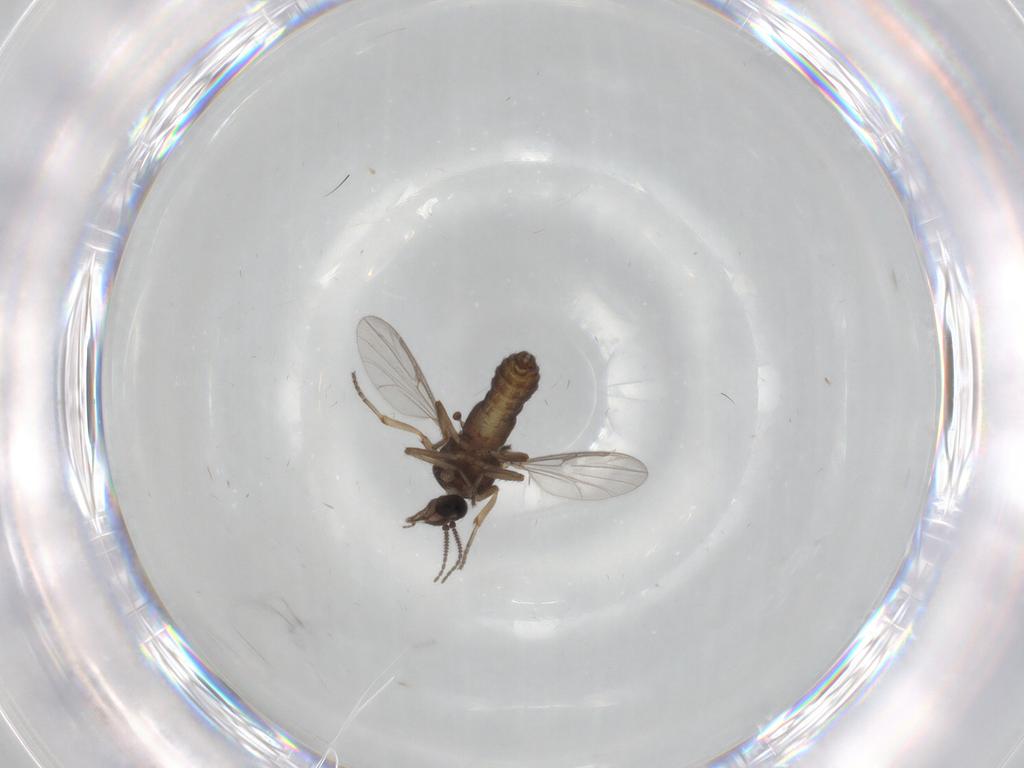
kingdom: Animalia
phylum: Arthropoda
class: Insecta
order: Diptera
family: Ceratopogonidae
